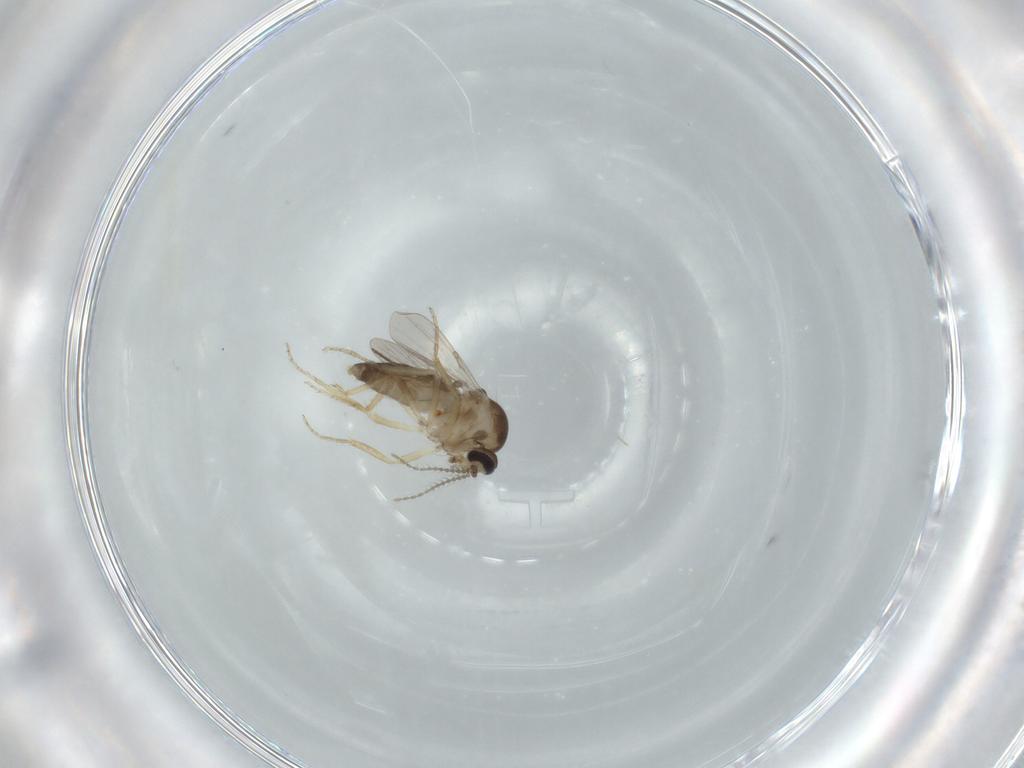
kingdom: Animalia
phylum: Arthropoda
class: Insecta
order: Diptera
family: Ceratopogonidae
